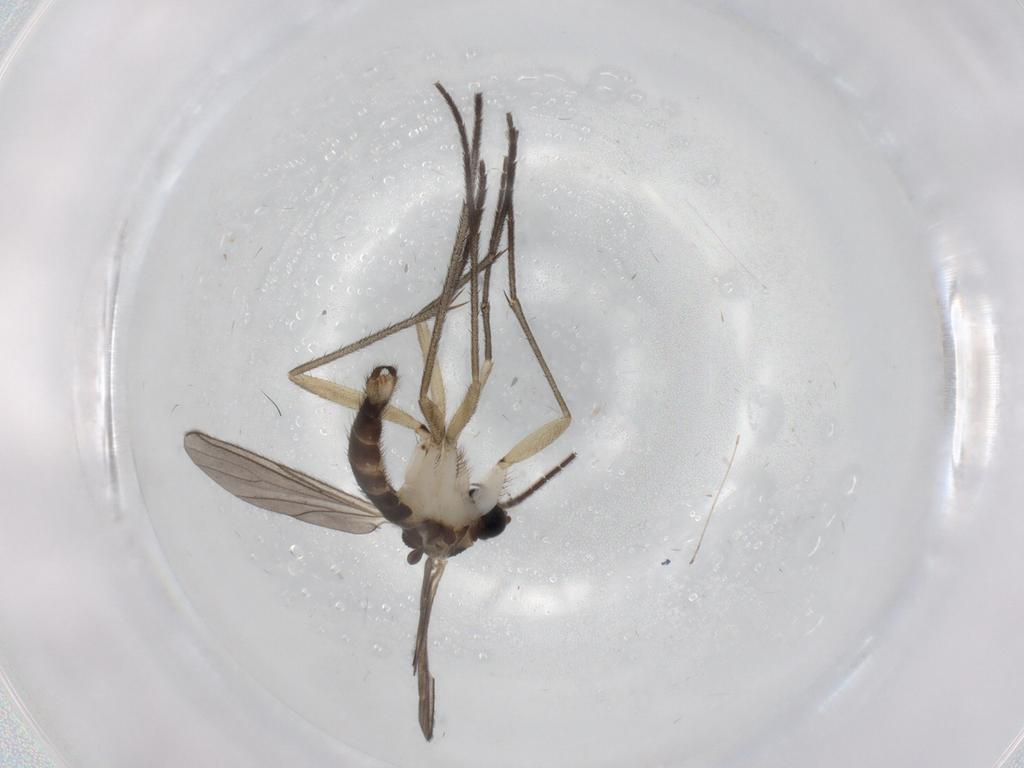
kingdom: Animalia
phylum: Arthropoda
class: Insecta
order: Diptera
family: Sciaridae
